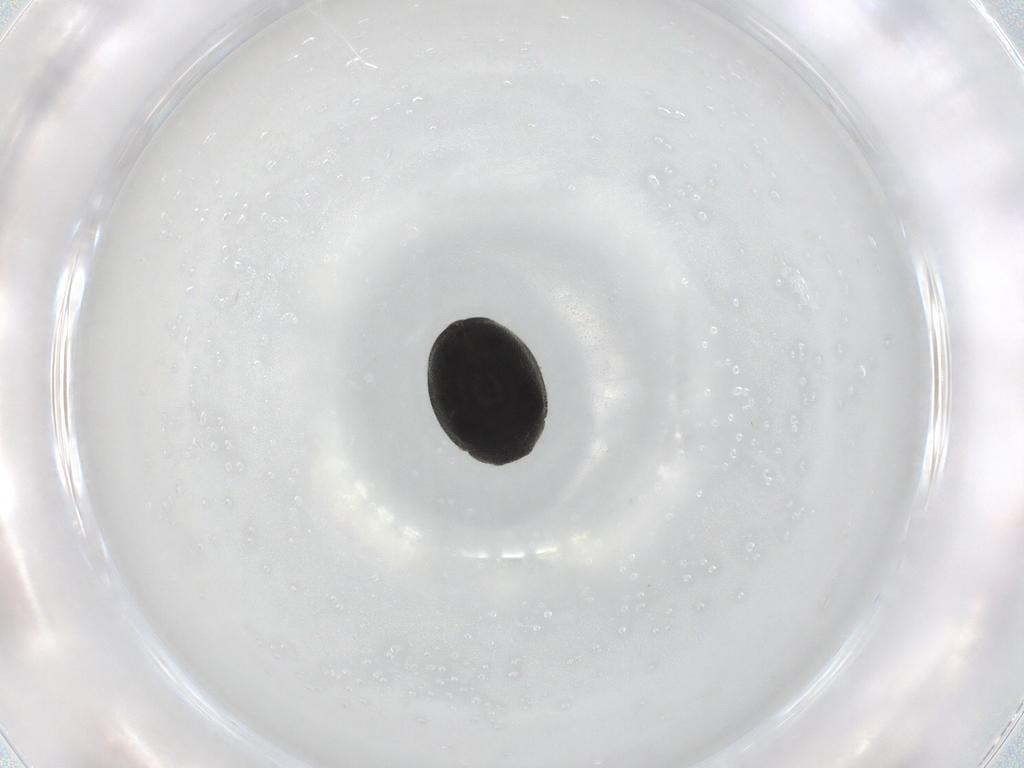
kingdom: Animalia
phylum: Arthropoda
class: Insecta
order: Coleoptera
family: Coccinellidae
